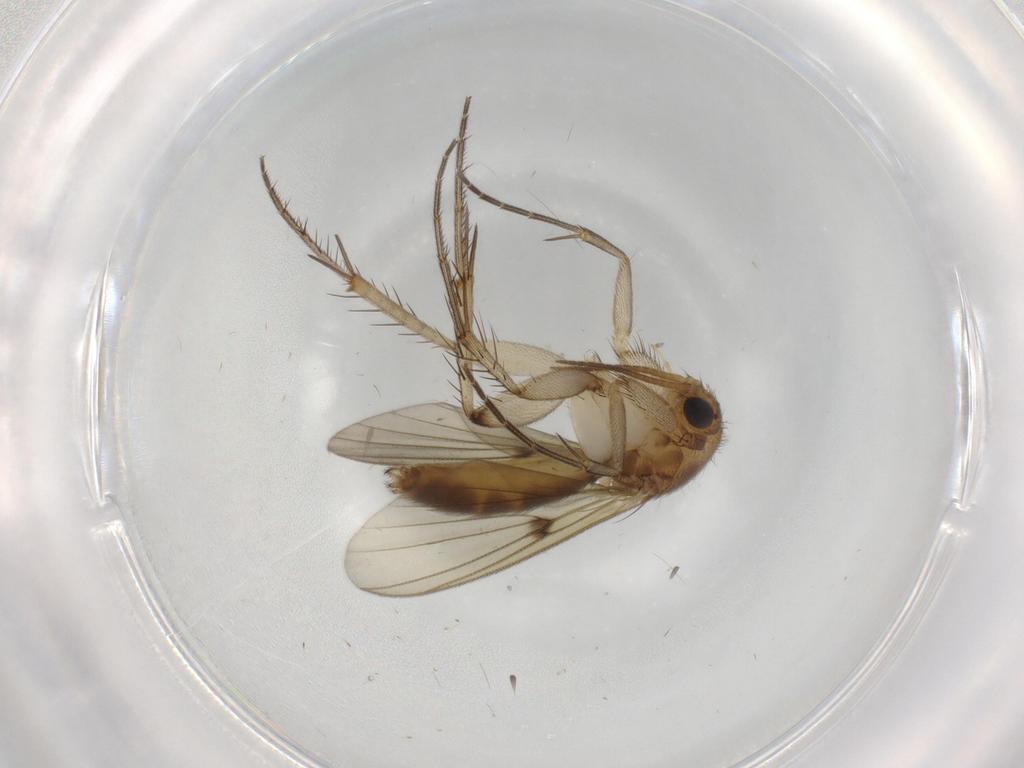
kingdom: Animalia
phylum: Arthropoda
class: Insecta
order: Diptera
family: Phoridae
